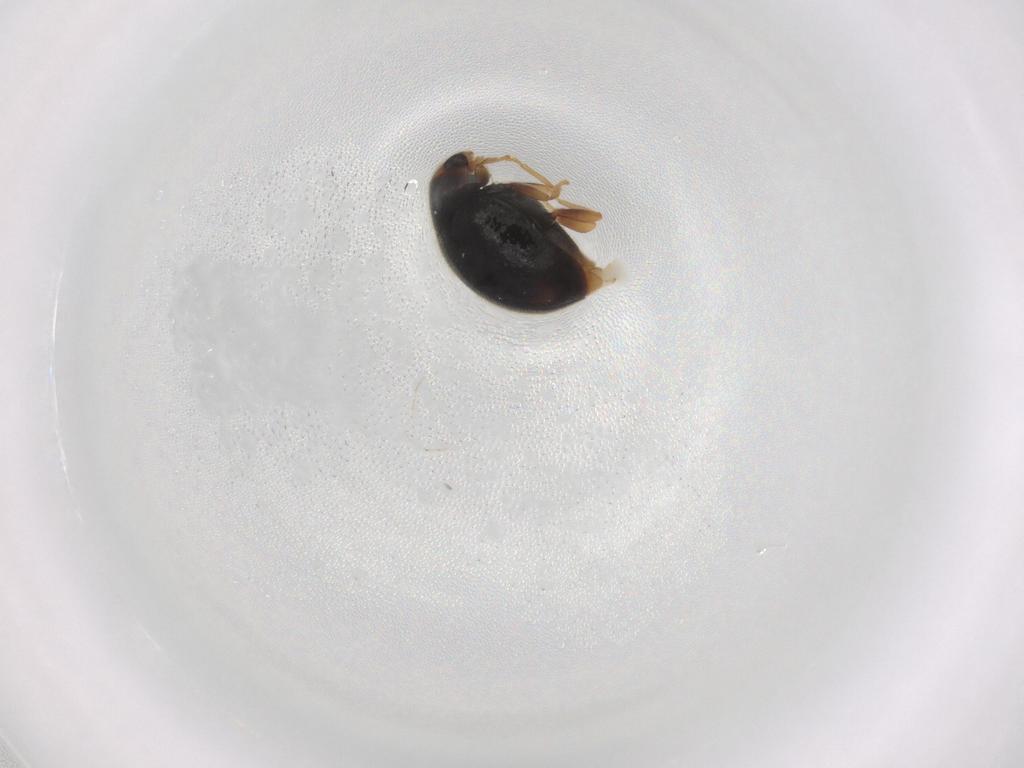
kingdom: Animalia
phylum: Arthropoda
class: Insecta
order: Coleoptera
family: Coccinellidae
